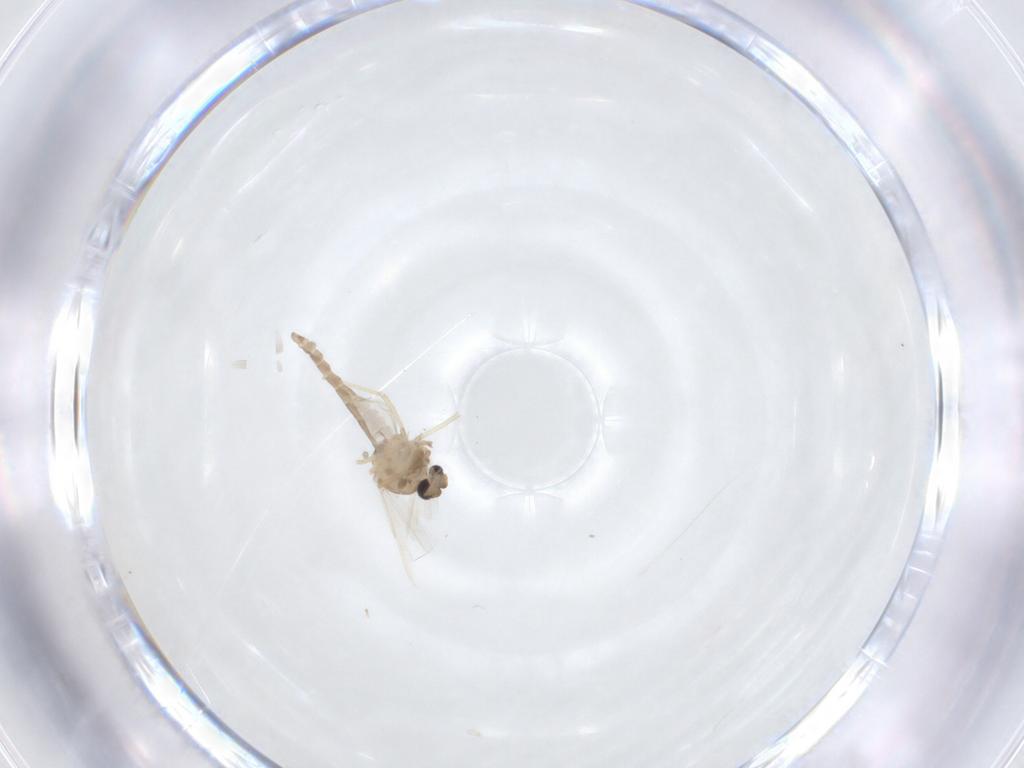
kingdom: Animalia
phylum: Arthropoda
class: Insecta
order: Diptera
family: Ceratopogonidae
